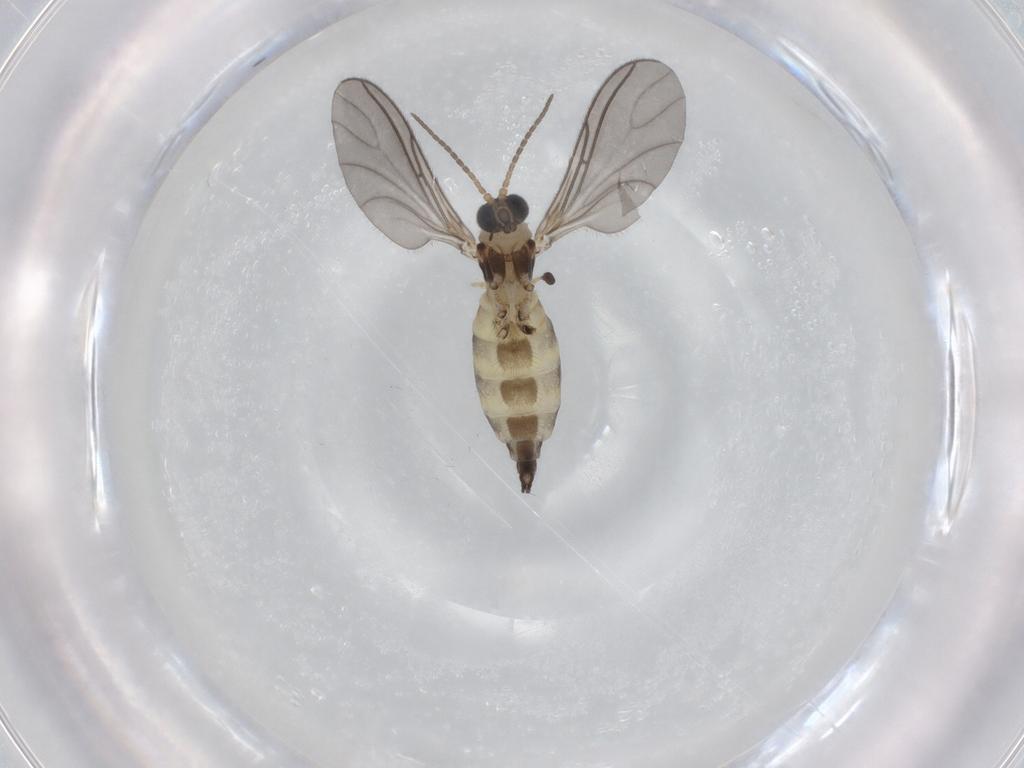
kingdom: Animalia
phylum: Arthropoda
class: Insecta
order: Diptera
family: Sciaridae
